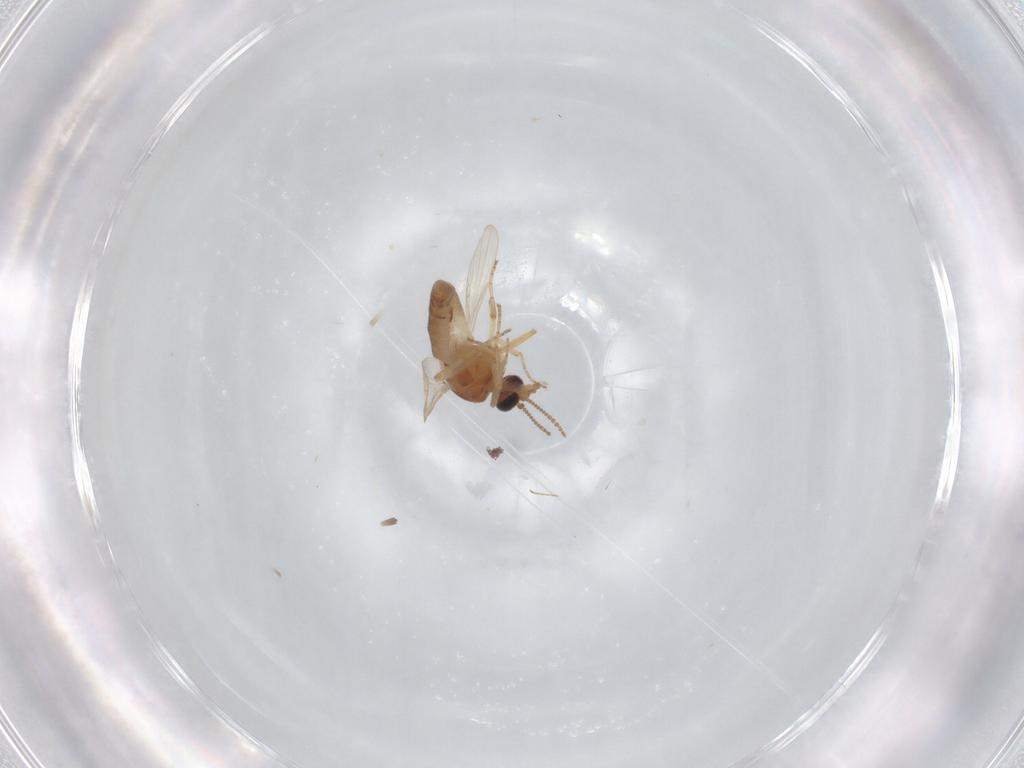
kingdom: Animalia
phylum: Arthropoda
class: Insecta
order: Diptera
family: Ceratopogonidae
